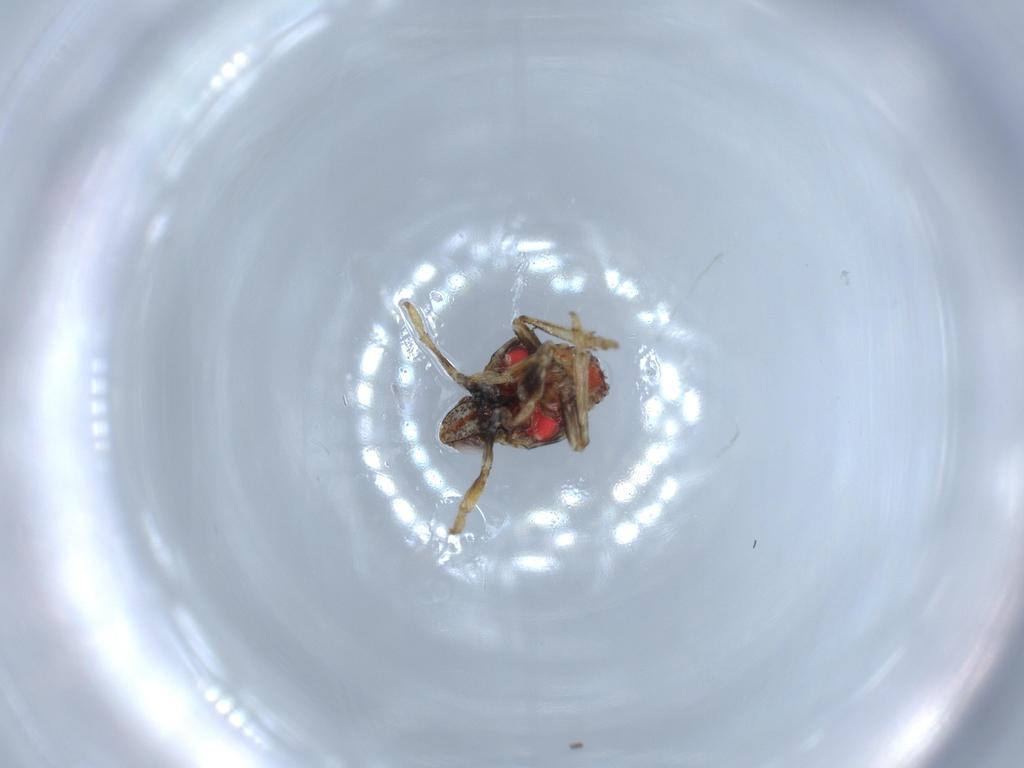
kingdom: Animalia
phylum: Arthropoda
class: Insecta
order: Hemiptera
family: Issidae
